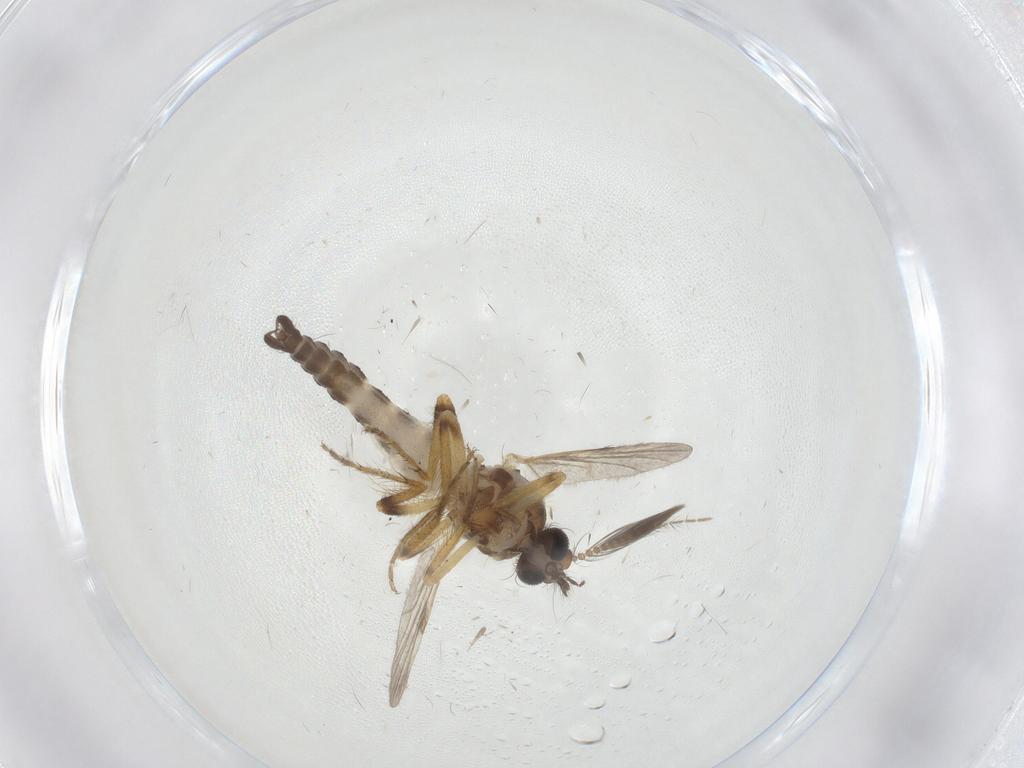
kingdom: Animalia
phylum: Arthropoda
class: Insecta
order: Diptera
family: Ceratopogonidae
